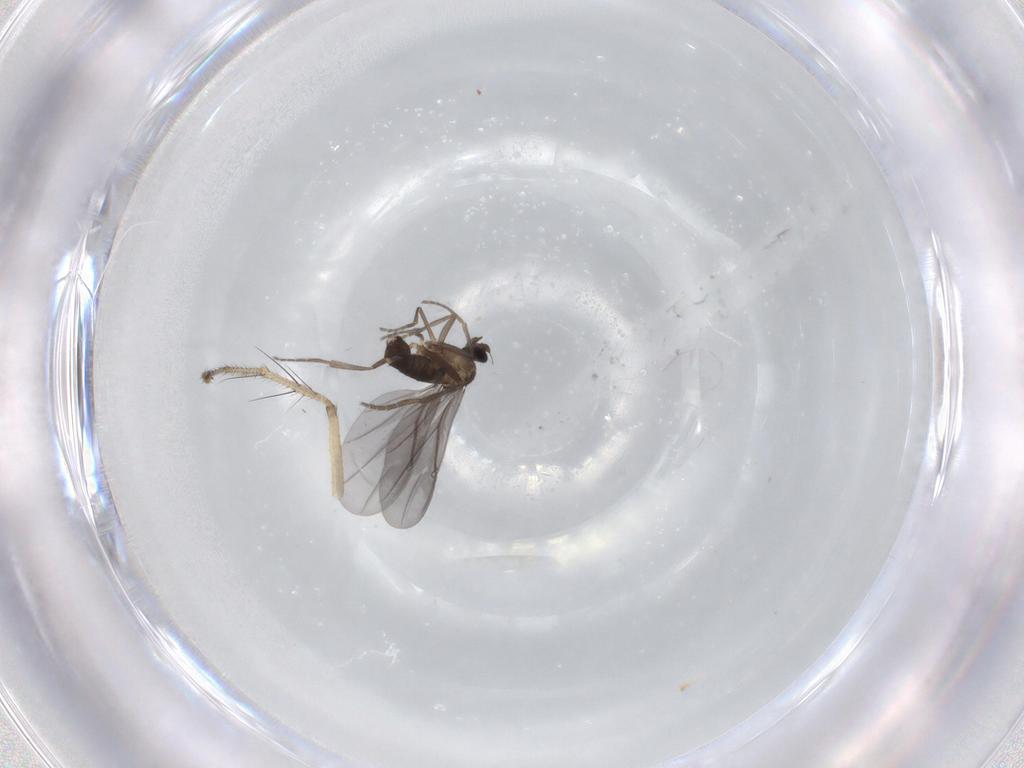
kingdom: Animalia
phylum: Arthropoda
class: Insecta
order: Diptera
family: Phoridae
